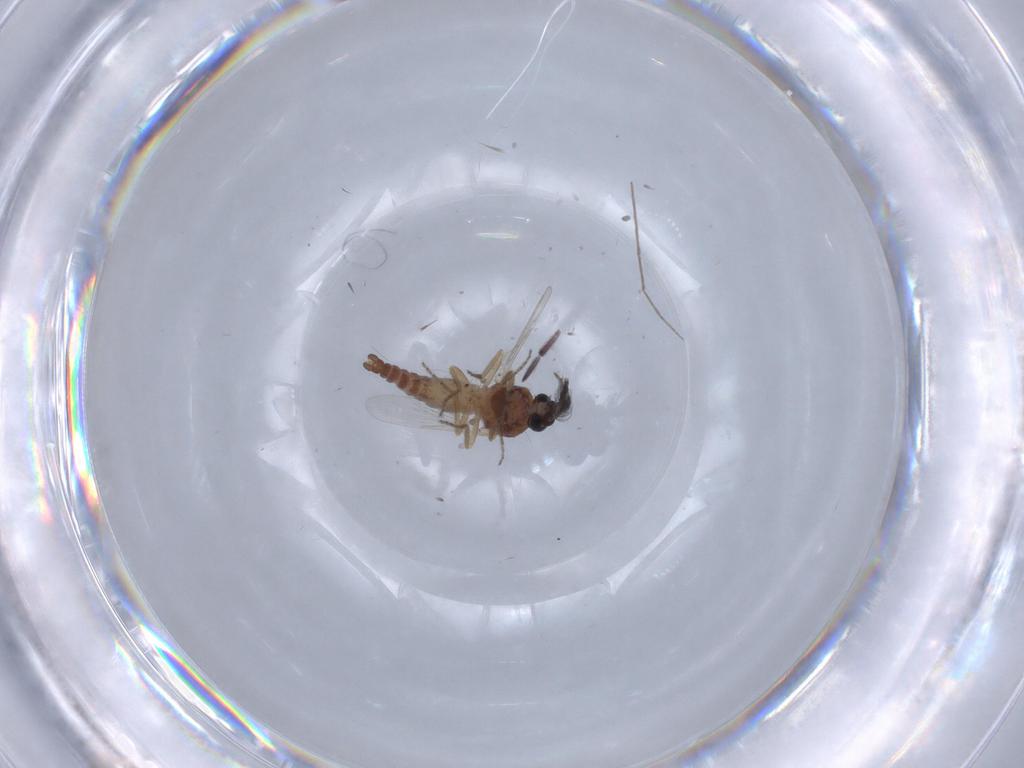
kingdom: Animalia
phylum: Arthropoda
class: Insecta
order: Diptera
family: Ceratopogonidae
